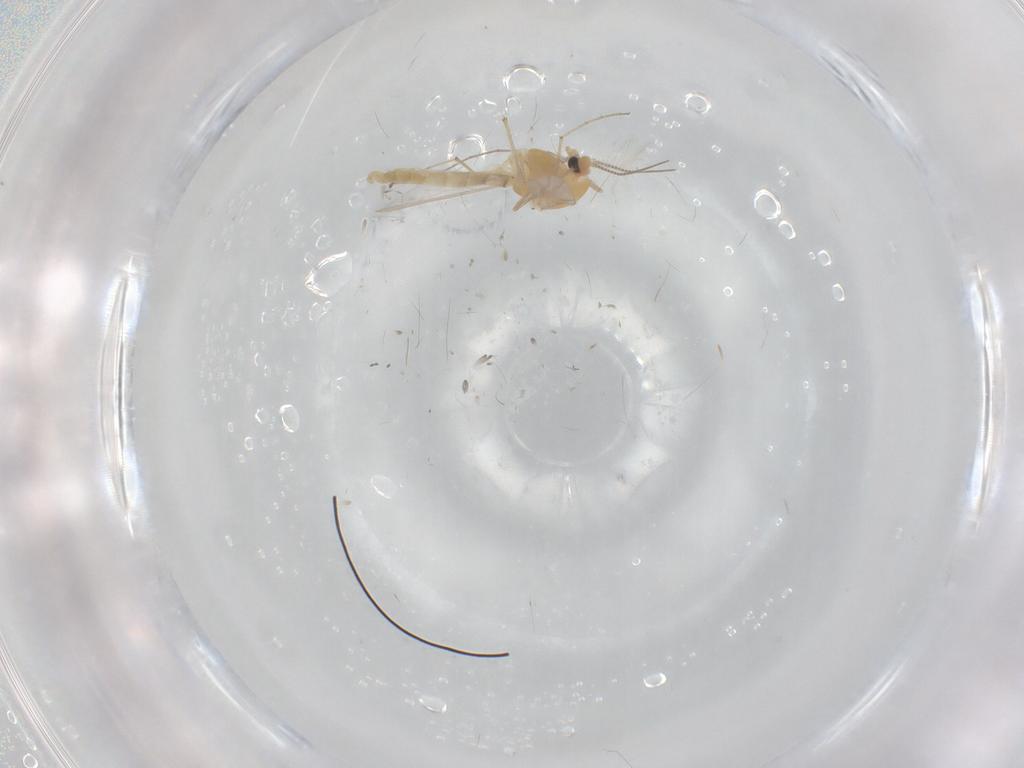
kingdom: Animalia
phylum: Arthropoda
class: Insecta
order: Diptera
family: Chironomidae
